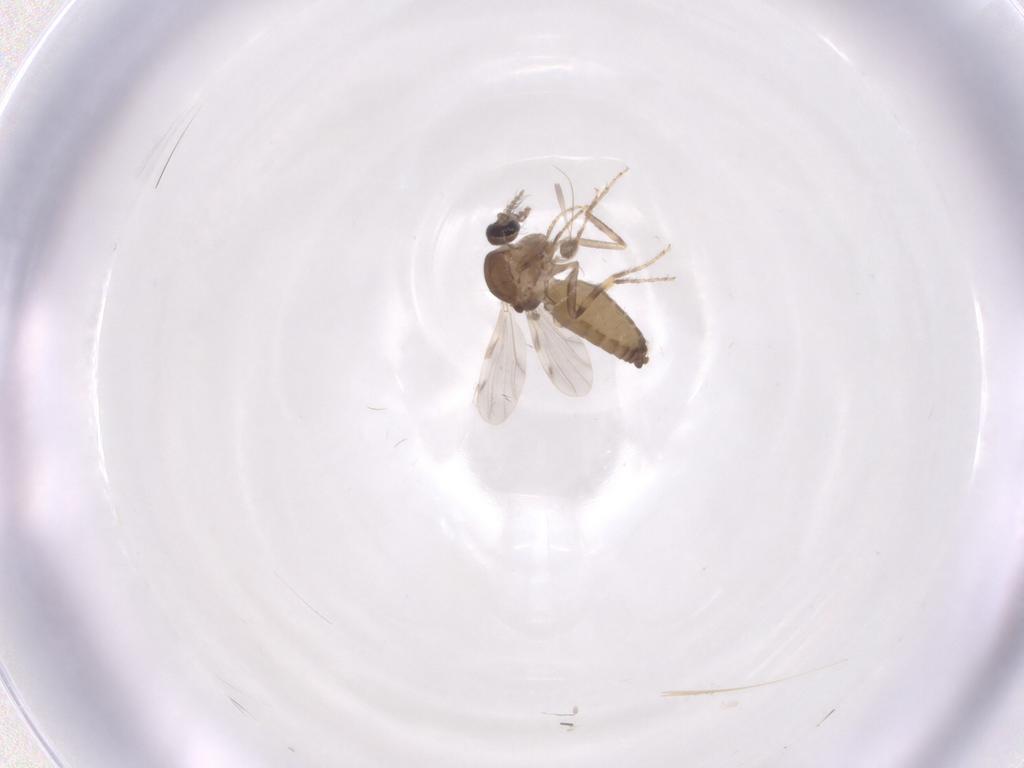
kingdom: Animalia
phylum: Arthropoda
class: Insecta
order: Diptera
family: Ceratopogonidae
